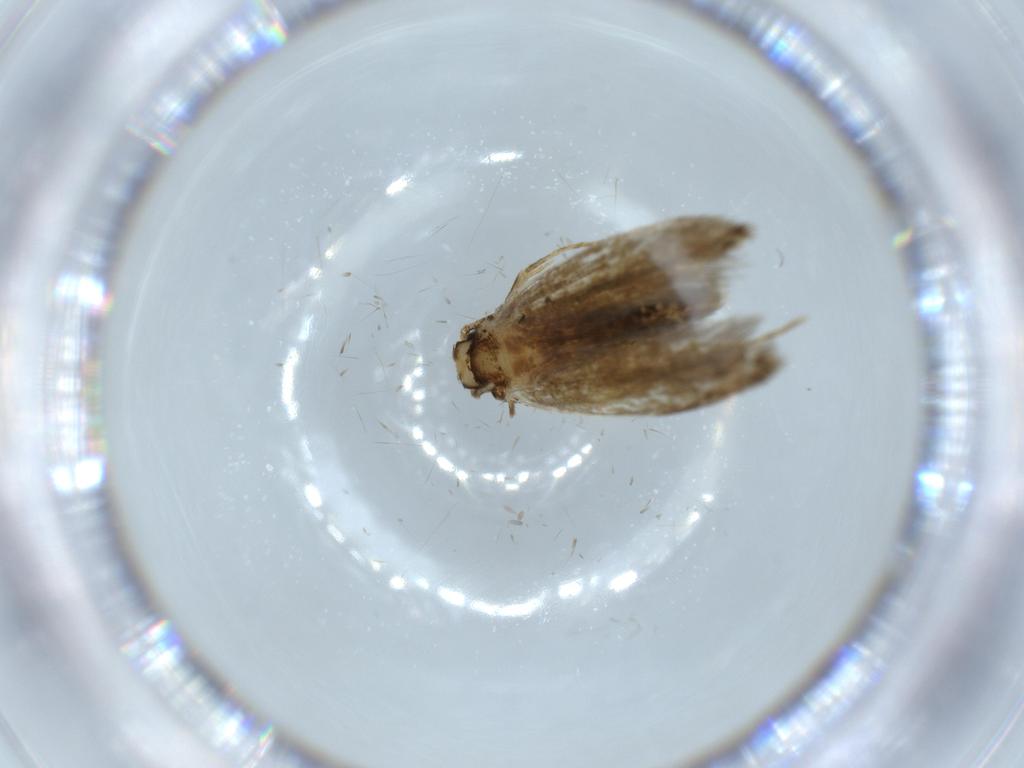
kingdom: Animalia
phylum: Arthropoda
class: Insecta
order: Lepidoptera
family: Tineidae
